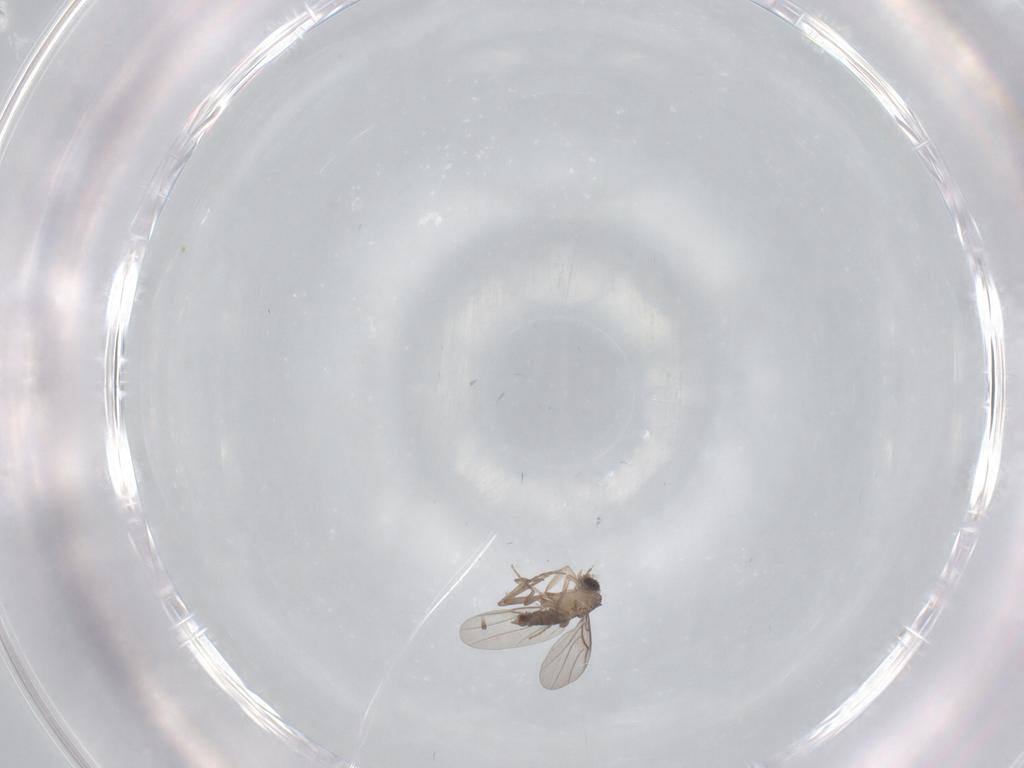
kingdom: Animalia
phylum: Arthropoda
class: Insecta
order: Diptera
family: Phoridae
